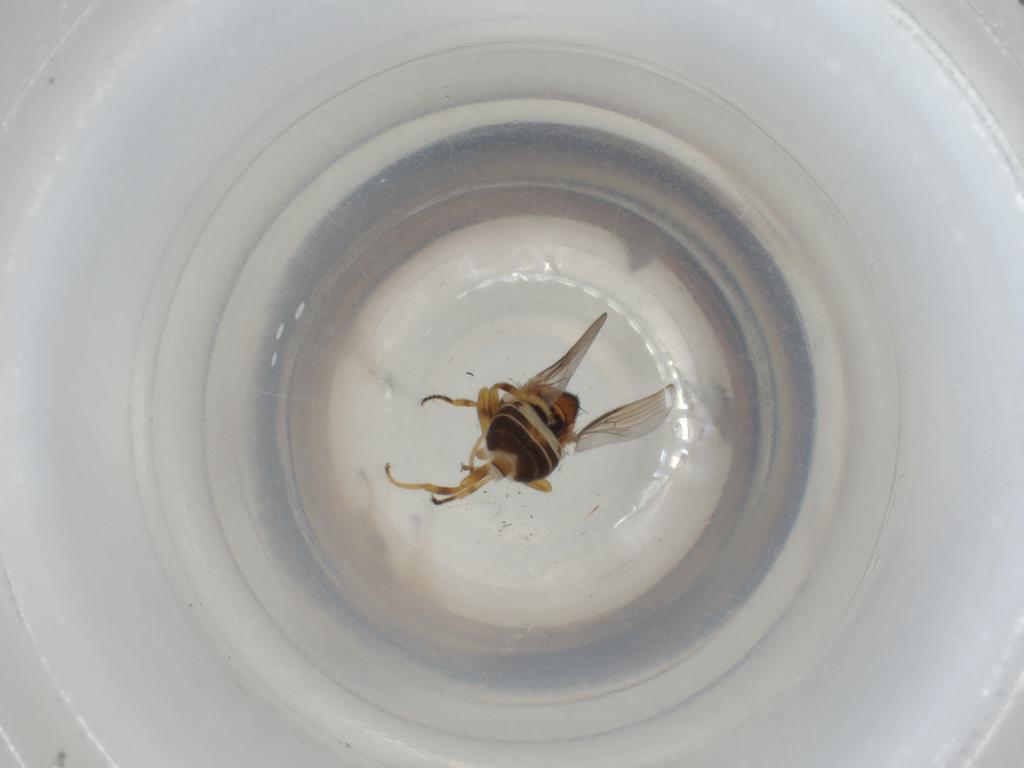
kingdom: Animalia
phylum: Arthropoda
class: Insecta
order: Diptera
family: Chloropidae
